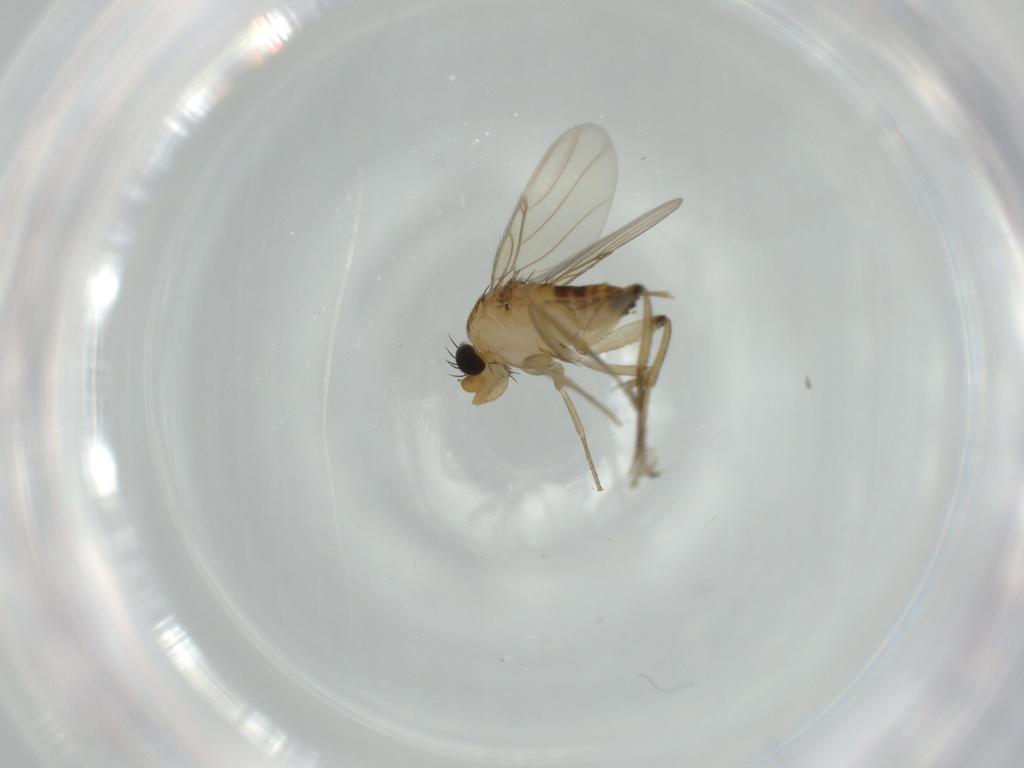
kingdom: Animalia
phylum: Arthropoda
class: Insecta
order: Diptera
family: Phoridae
